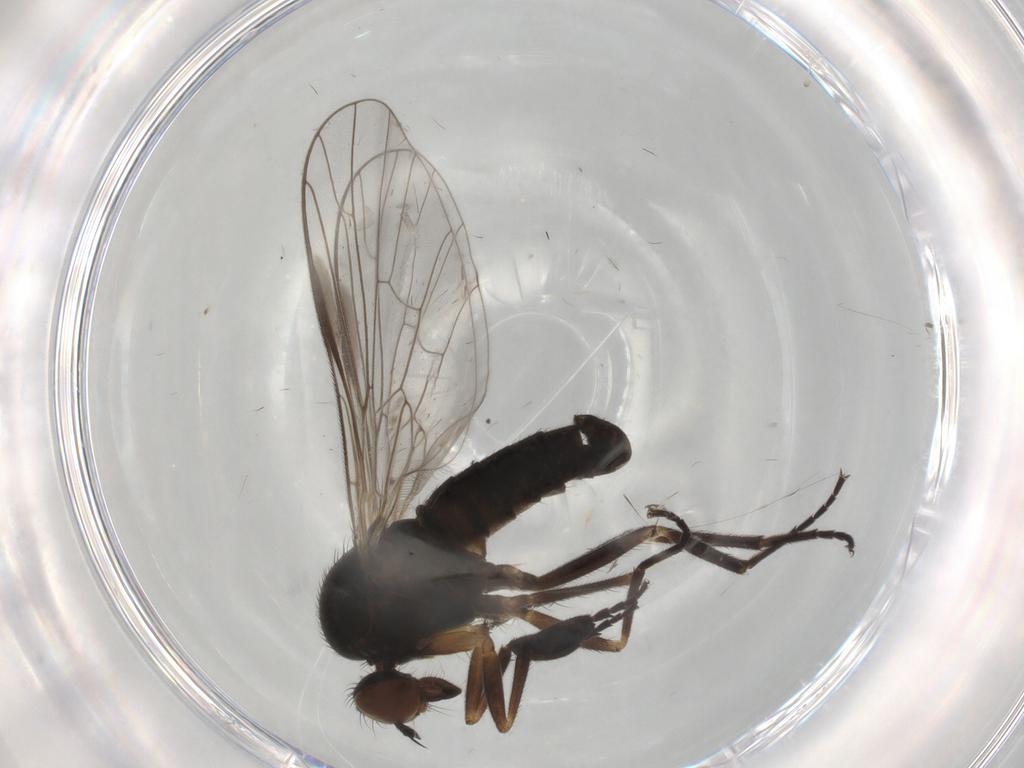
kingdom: Animalia
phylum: Arthropoda
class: Insecta
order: Diptera
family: Empididae
